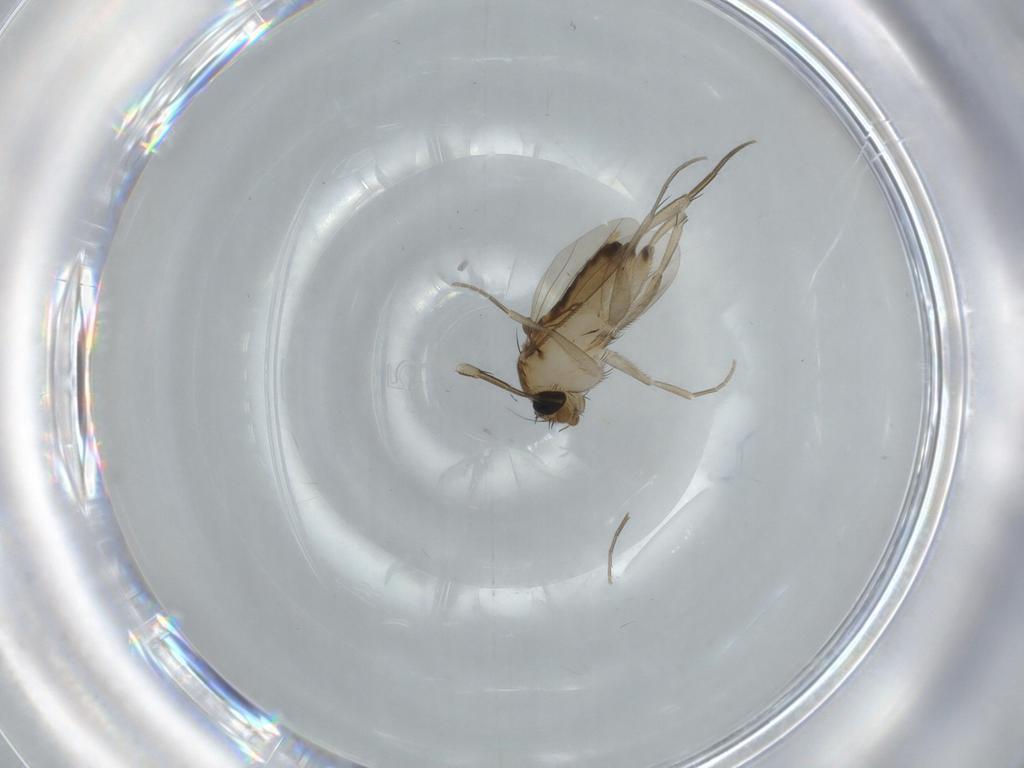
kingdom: Animalia
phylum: Arthropoda
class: Insecta
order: Diptera
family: Phoridae
